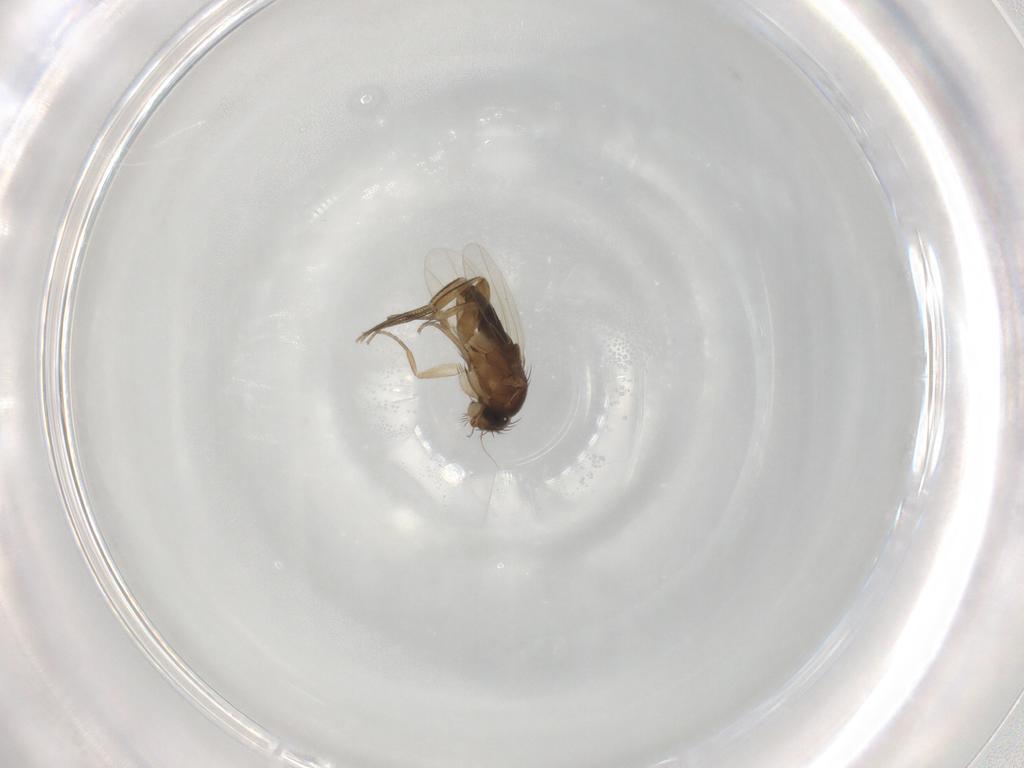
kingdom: Animalia
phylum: Arthropoda
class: Insecta
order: Diptera
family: Phoridae
